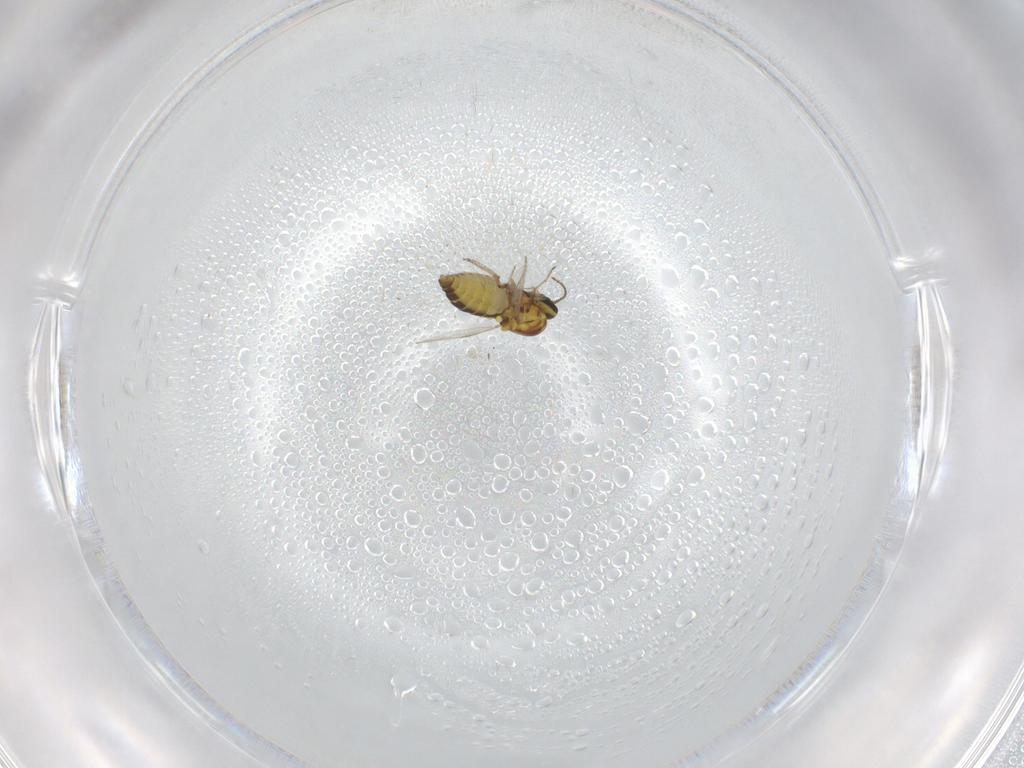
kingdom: Animalia
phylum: Arthropoda
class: Insecta
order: Diptera
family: Ceratopogonidae
